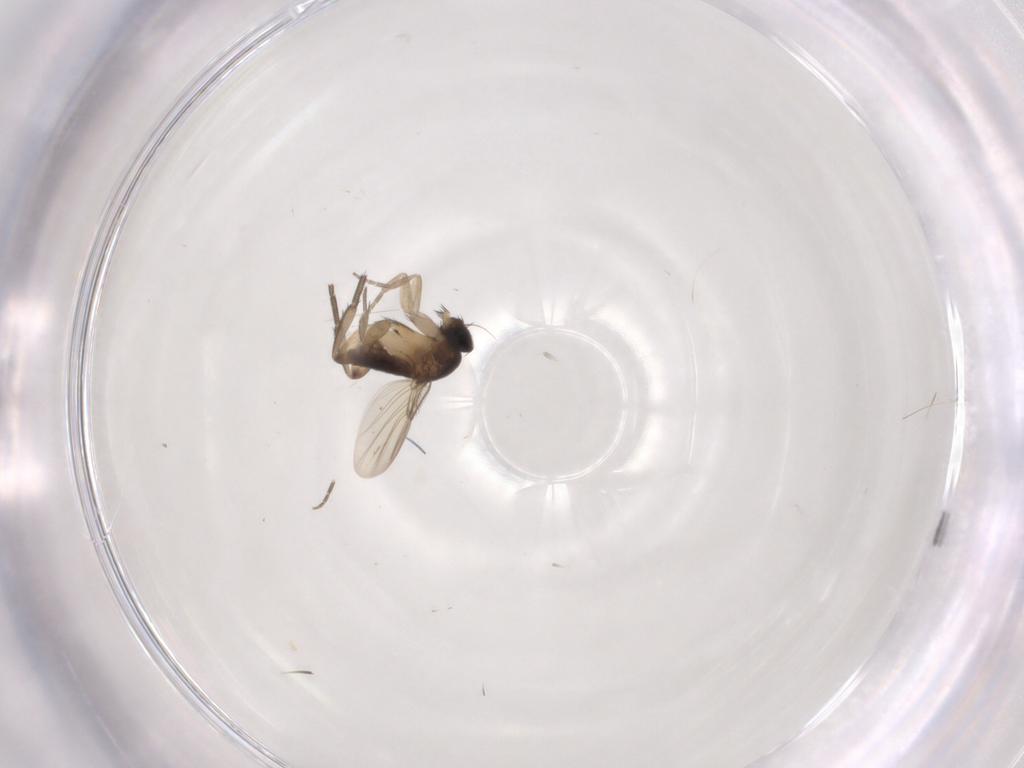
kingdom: Animalia
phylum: Arthropoda
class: Insecta
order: Diptera
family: Phoridae
